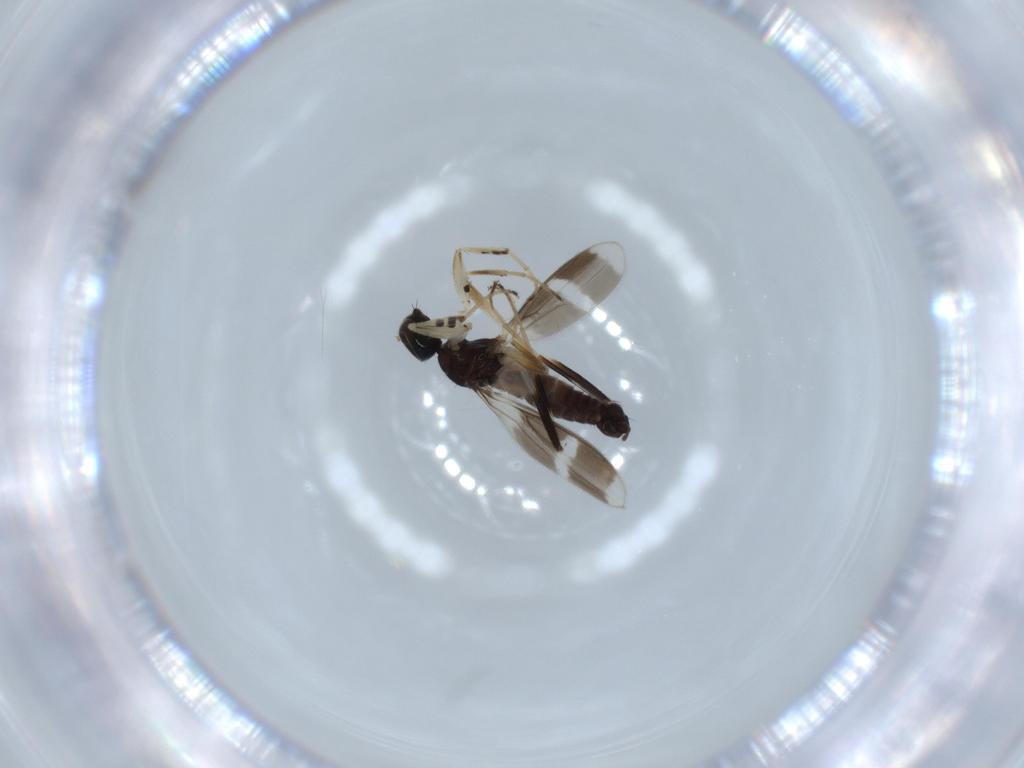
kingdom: Animalia
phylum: Arthropoda
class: Insecta
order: Diptera
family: Hybotidae
